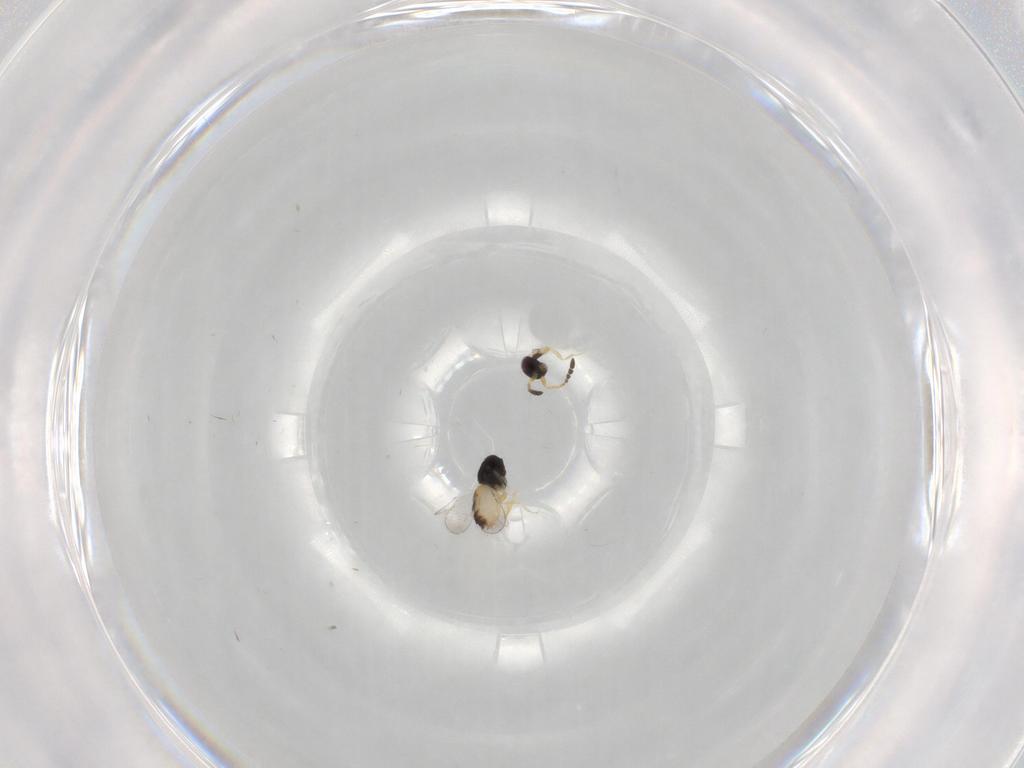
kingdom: Animalia
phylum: Arthropoda
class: Insecta
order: Hymenoptera
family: Ceraphronidae
